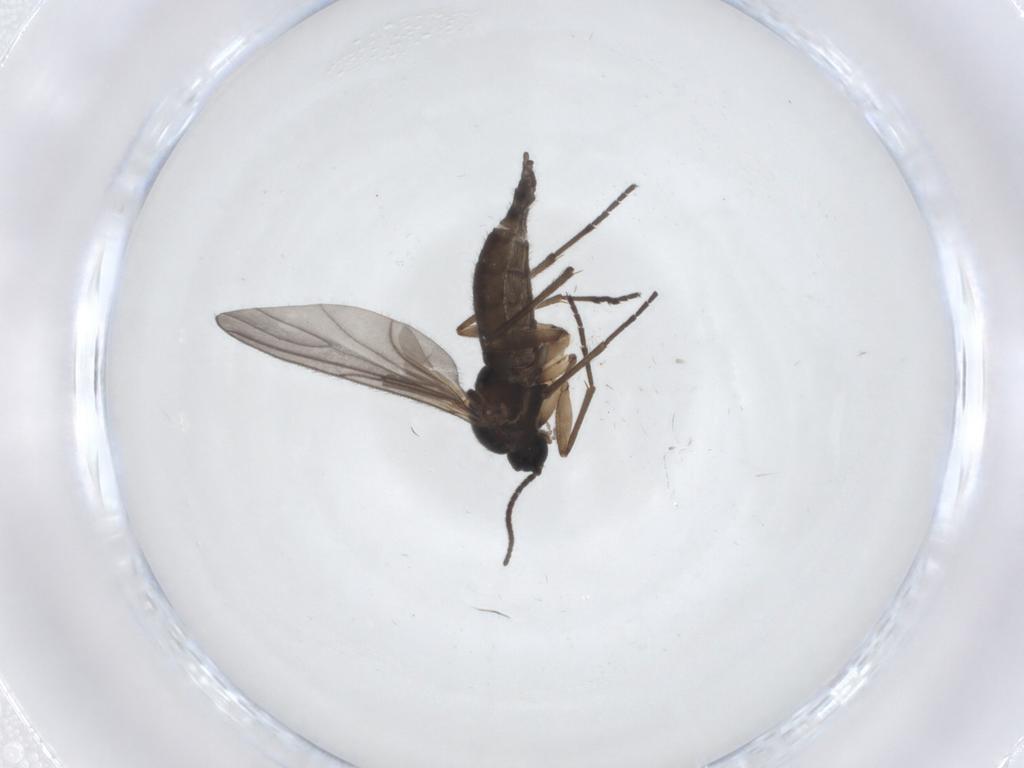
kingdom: Animalia
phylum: Arthropoda
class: Insecta
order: Diptera
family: Sciaridae
